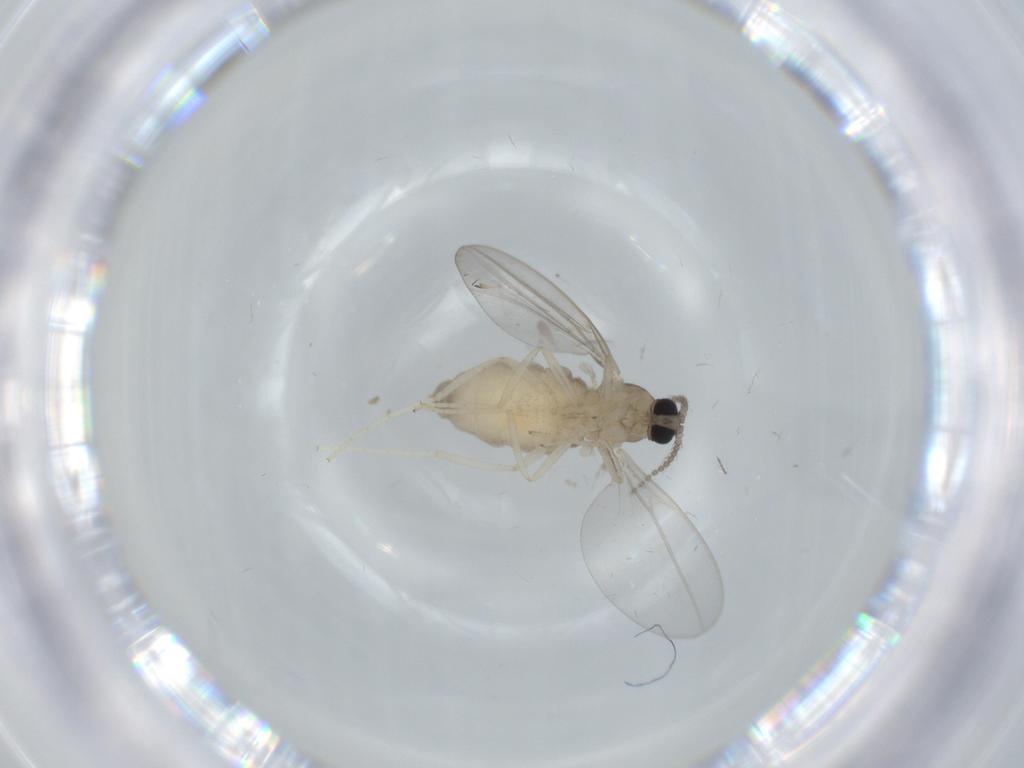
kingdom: Animalia
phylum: Arthropoda
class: Insecta
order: Diptera
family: Cecidomyiidae
